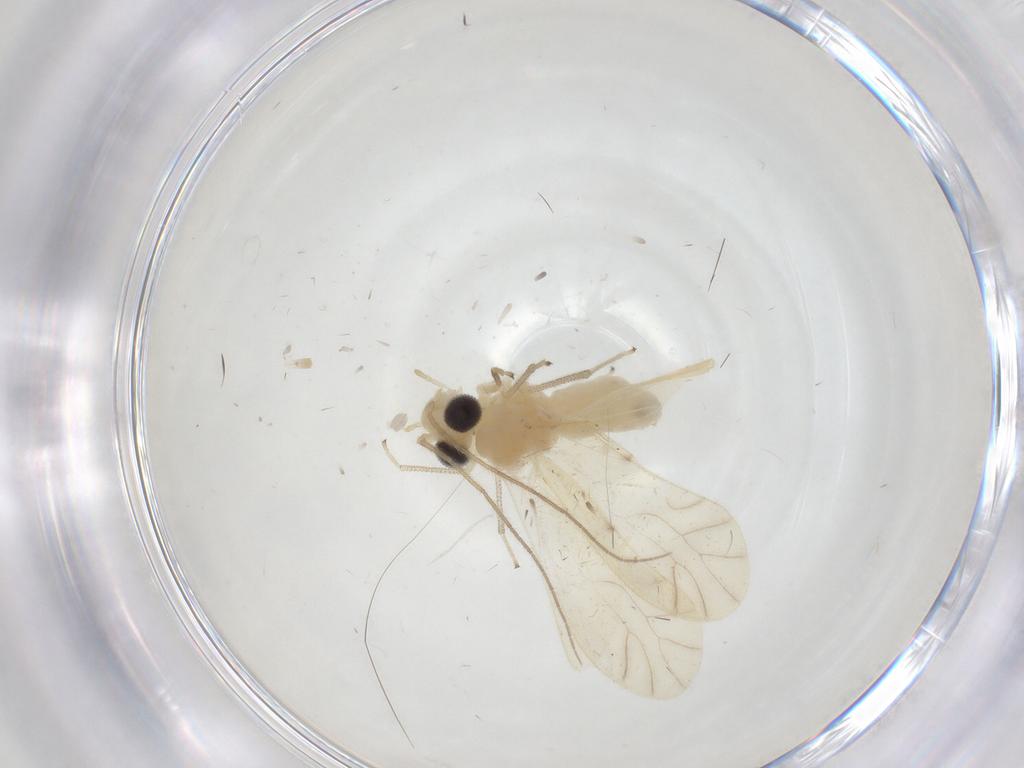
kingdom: Animalia
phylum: Arthropoda
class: Insecta
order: Psocodea
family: Caeciliusidae
